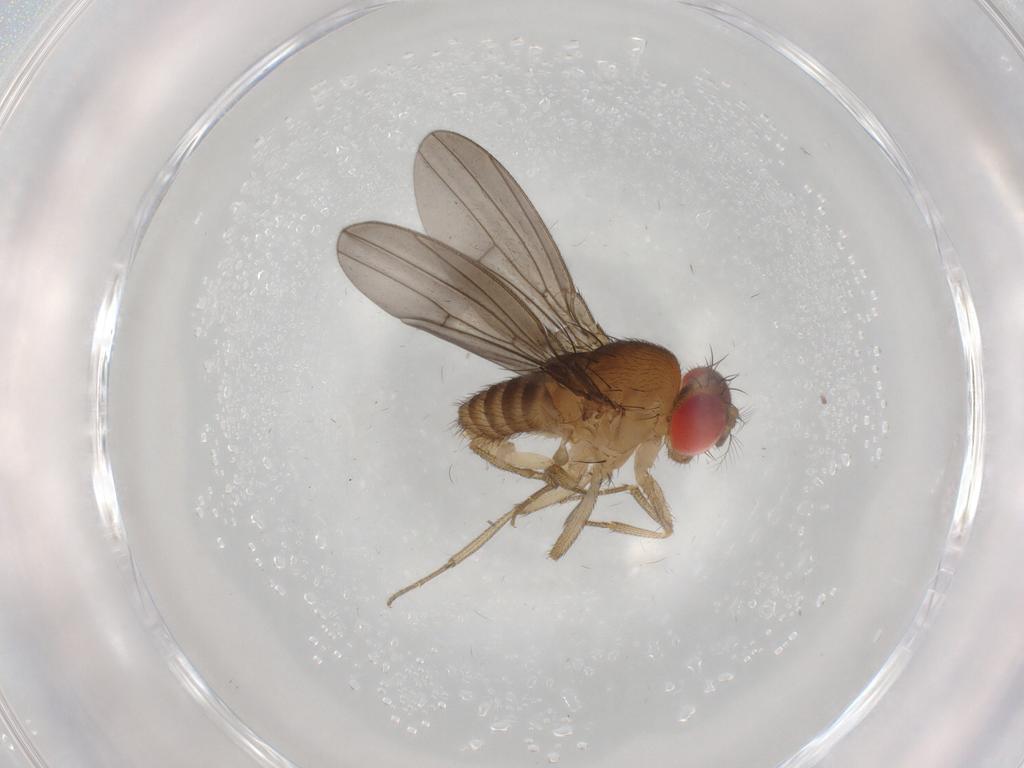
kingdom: Animalia
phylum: Arthropoda
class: Insecta
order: Diptera
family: Drosophilidae
